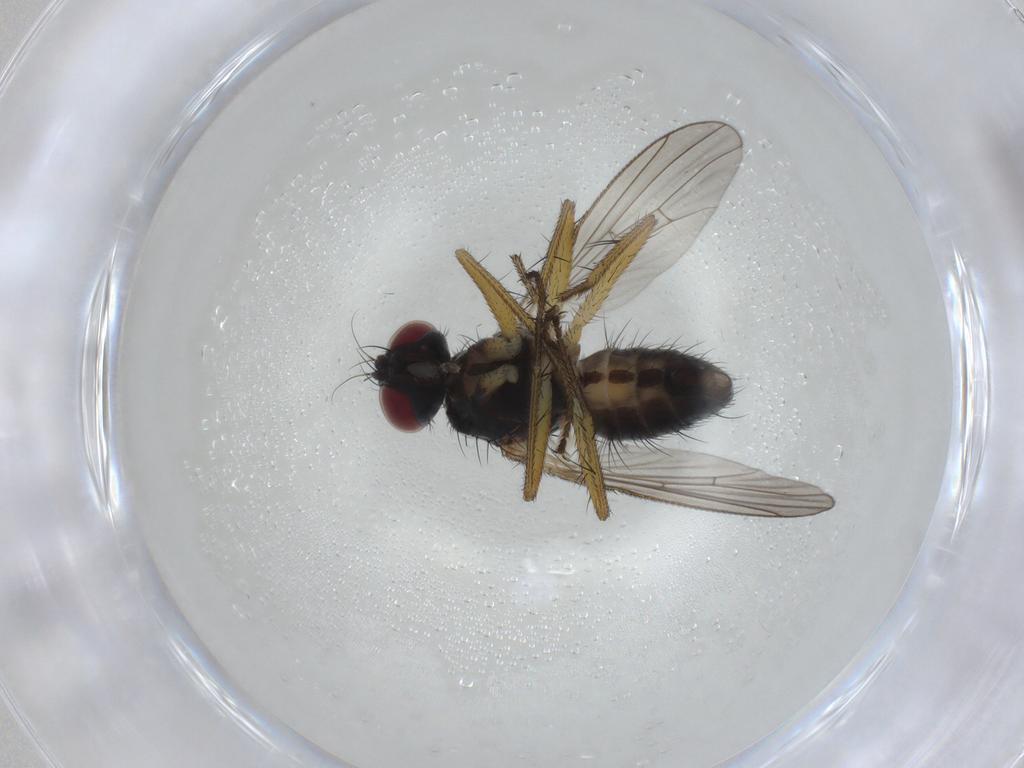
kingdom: Animalia
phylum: Arthropoda
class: Insecta
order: Diptera
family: Muscidae
